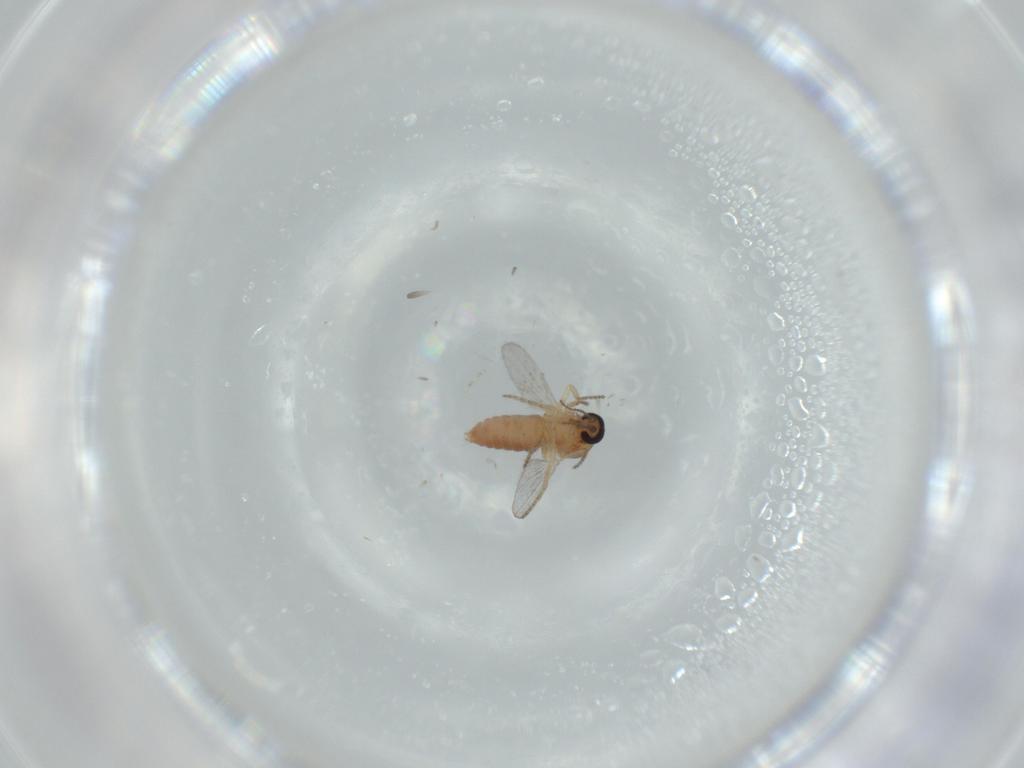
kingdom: Animalia
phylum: Arthropoda
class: Insecta
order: Diptera
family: Ceratopogonidae
